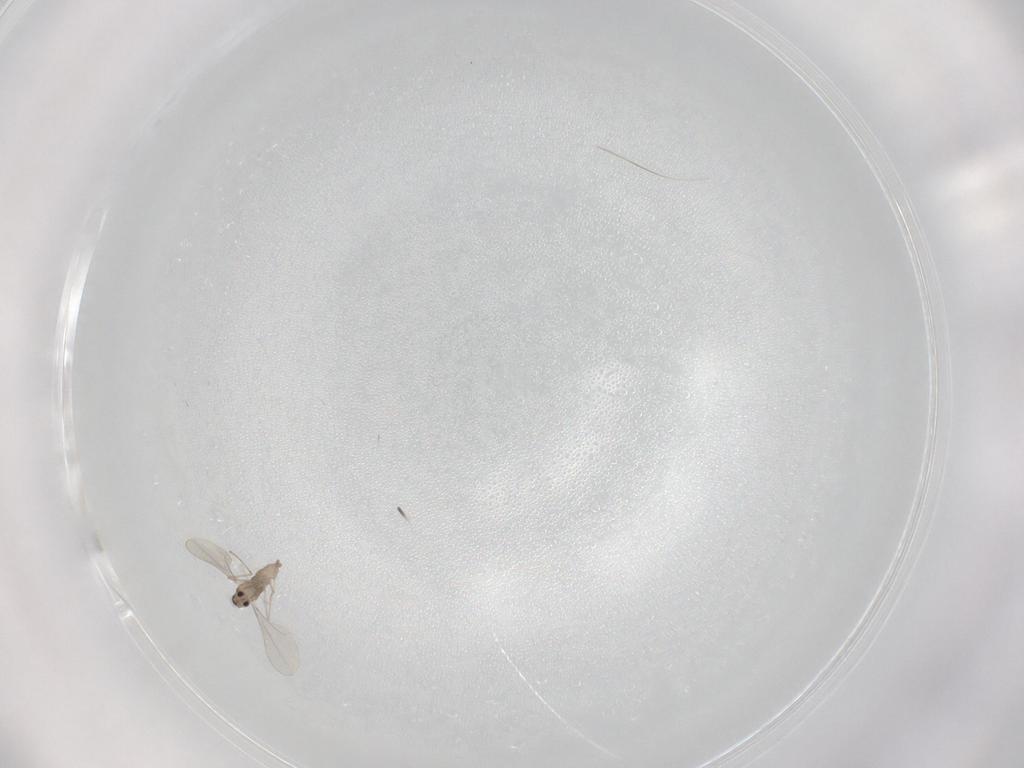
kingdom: Animalia
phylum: Arthropoda
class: Insecta
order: Diptera
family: Cecidomyiidae
